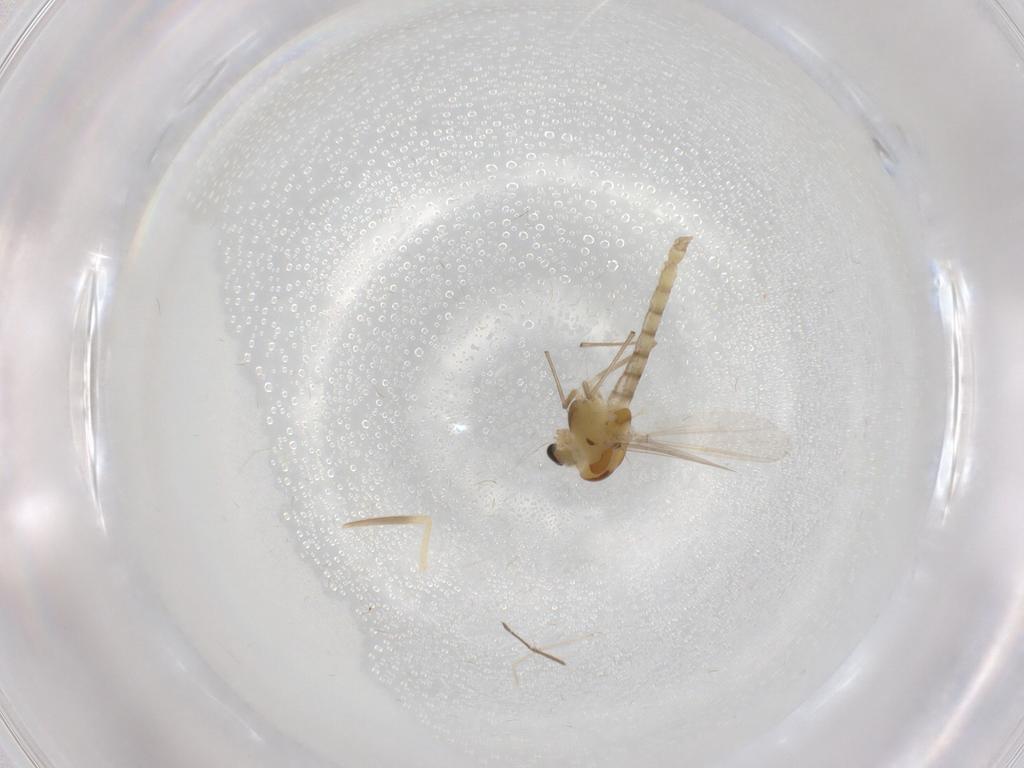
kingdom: Animalia
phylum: Arthropoda
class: Insecta
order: Diptera
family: Chironomidae
